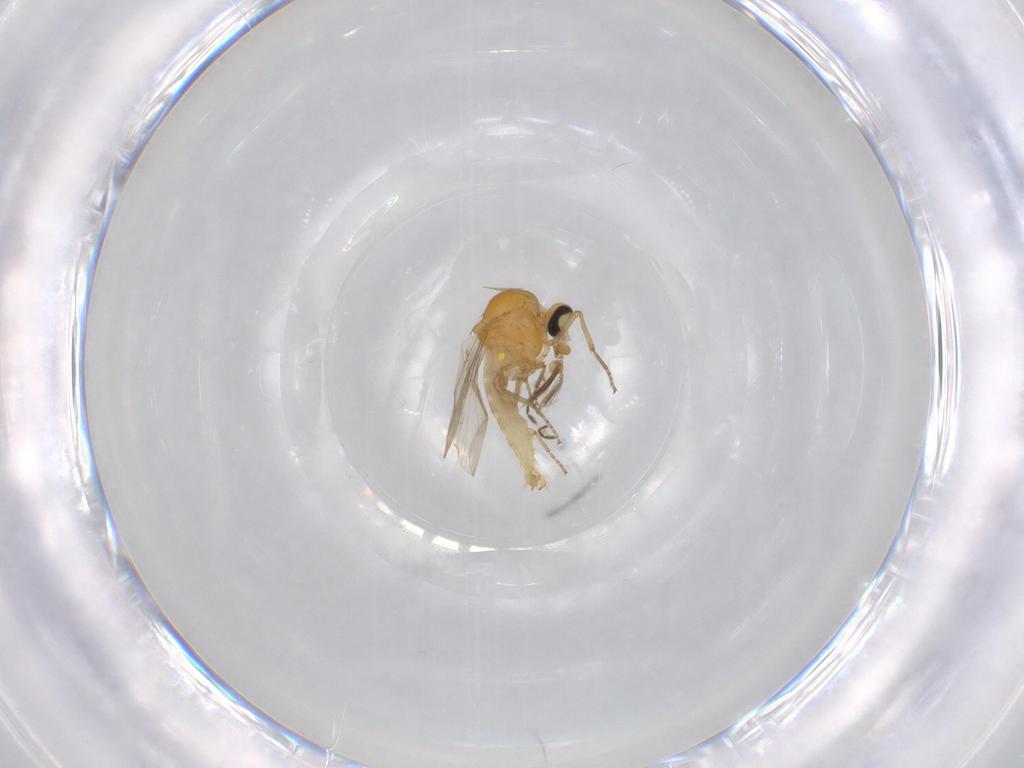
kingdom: Animalia
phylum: Arthropoda
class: Insecta
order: Diptera
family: Ceratopogonidae
